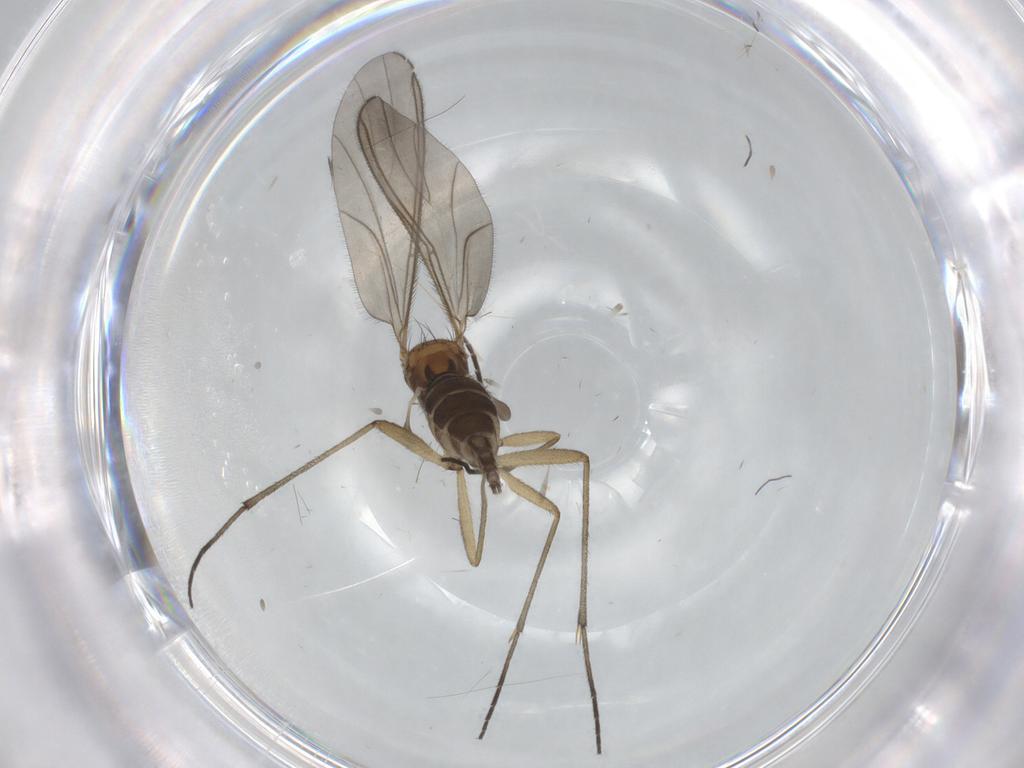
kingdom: Animalia
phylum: Arthropoda
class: Insecta
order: Diptera
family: Sciaridae
